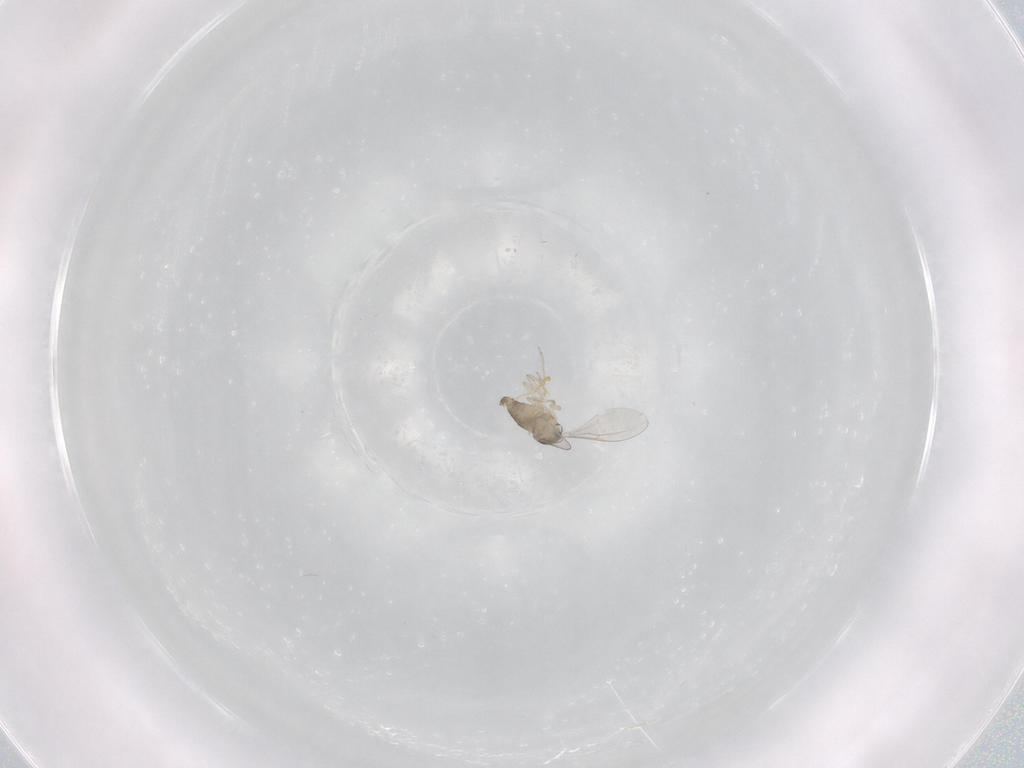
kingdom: Animalia
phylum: Arthropoda
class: Insecta
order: Diptera
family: Cecidomyiidae
